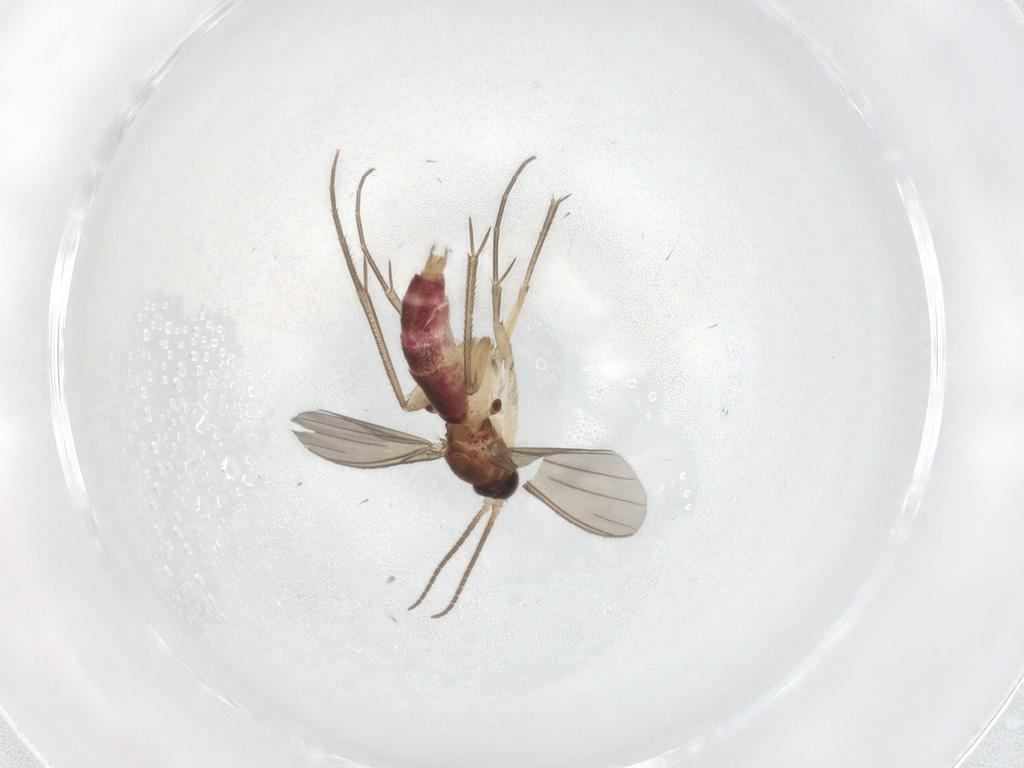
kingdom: Animalia
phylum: Arthropoda
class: Insecta
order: Diptera
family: Mycetophilidae
